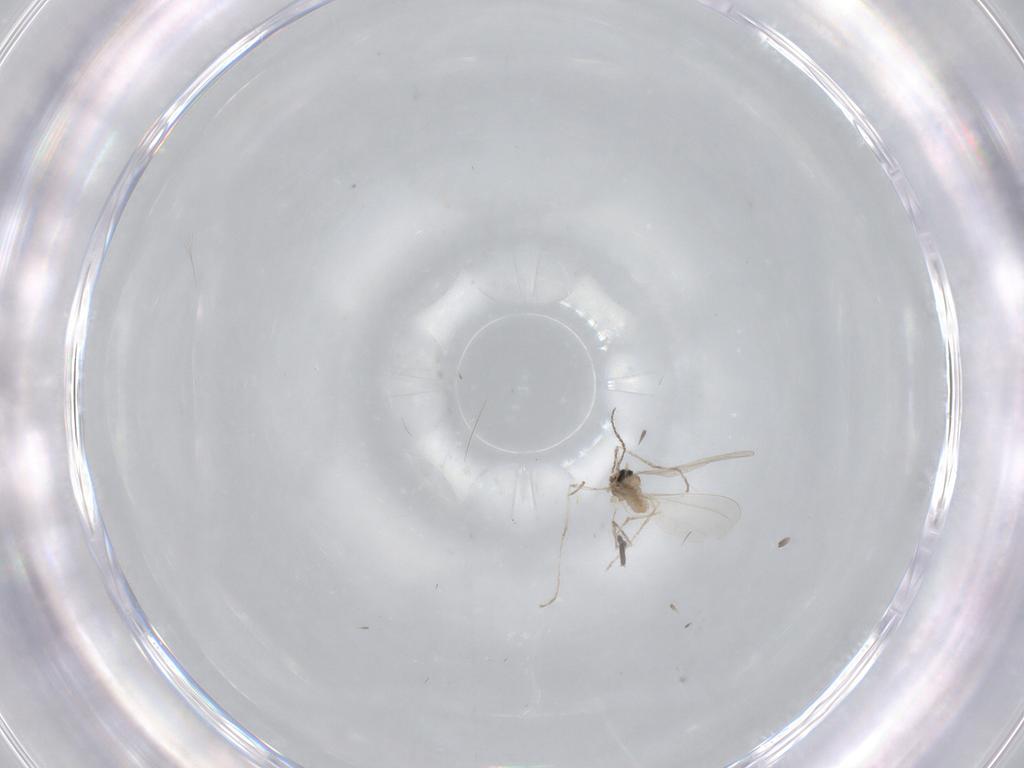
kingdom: Animalia
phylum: Arthropoda
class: Insecta
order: Diptera
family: Cecidomyiidae
